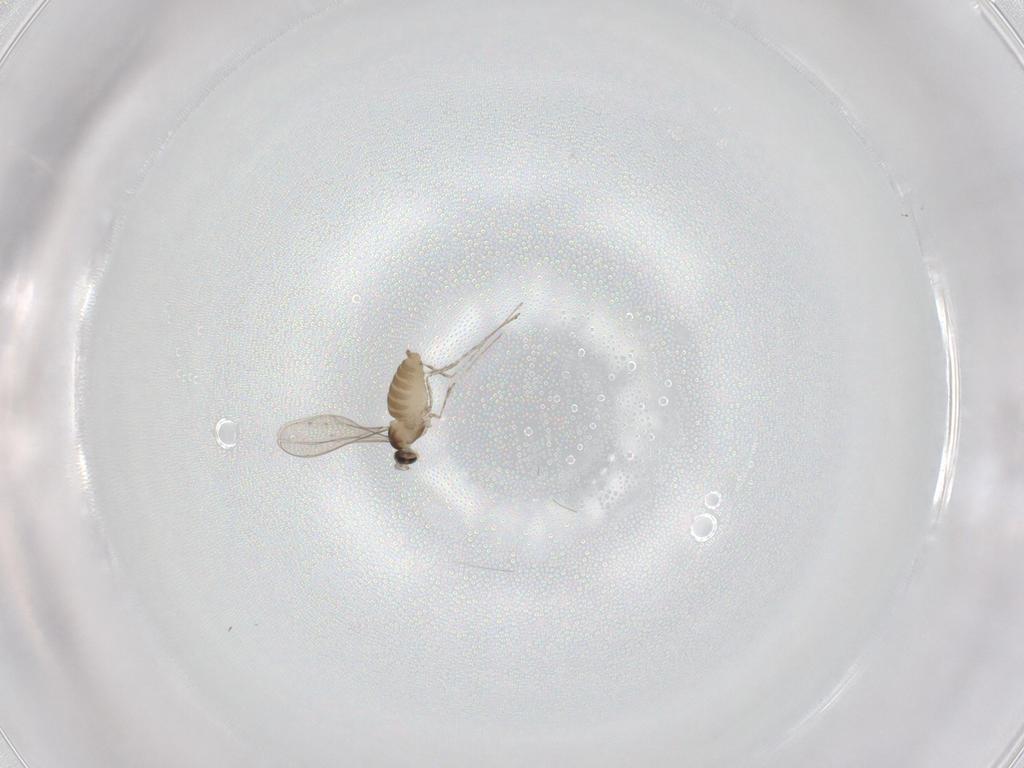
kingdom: Animalia
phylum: Arthropoda
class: Insecta
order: Diptera
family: Cecidomyiidae
